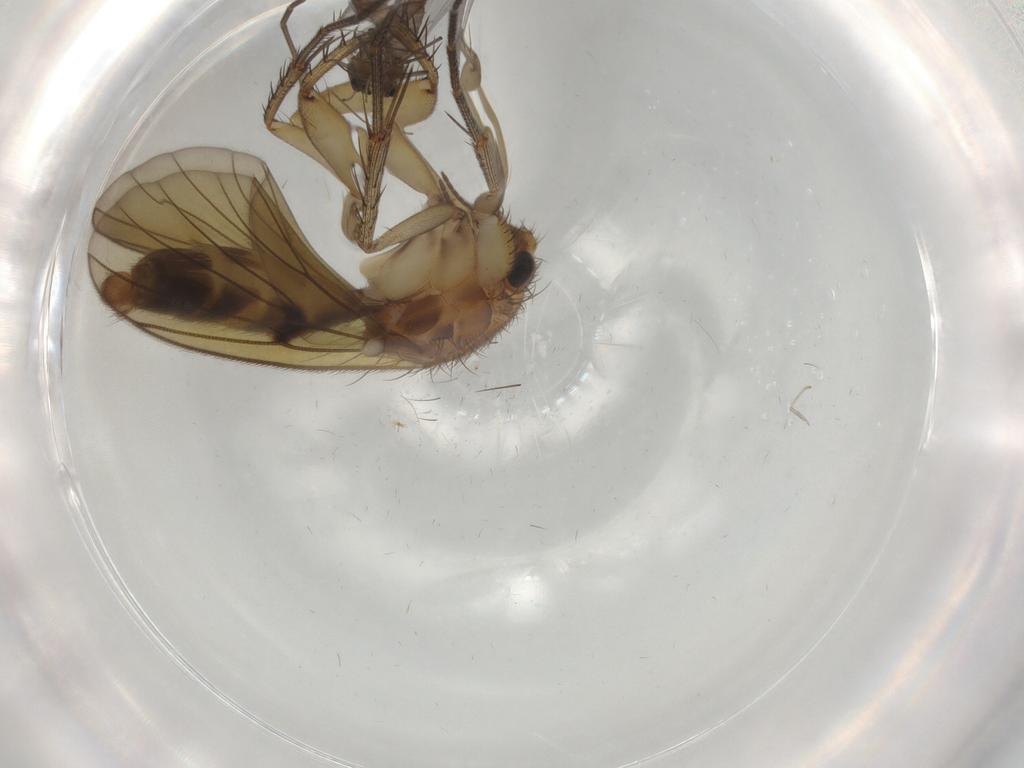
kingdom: Animalia
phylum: Arthropoda
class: Insecta
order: Diptera
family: Mycetophilidae
